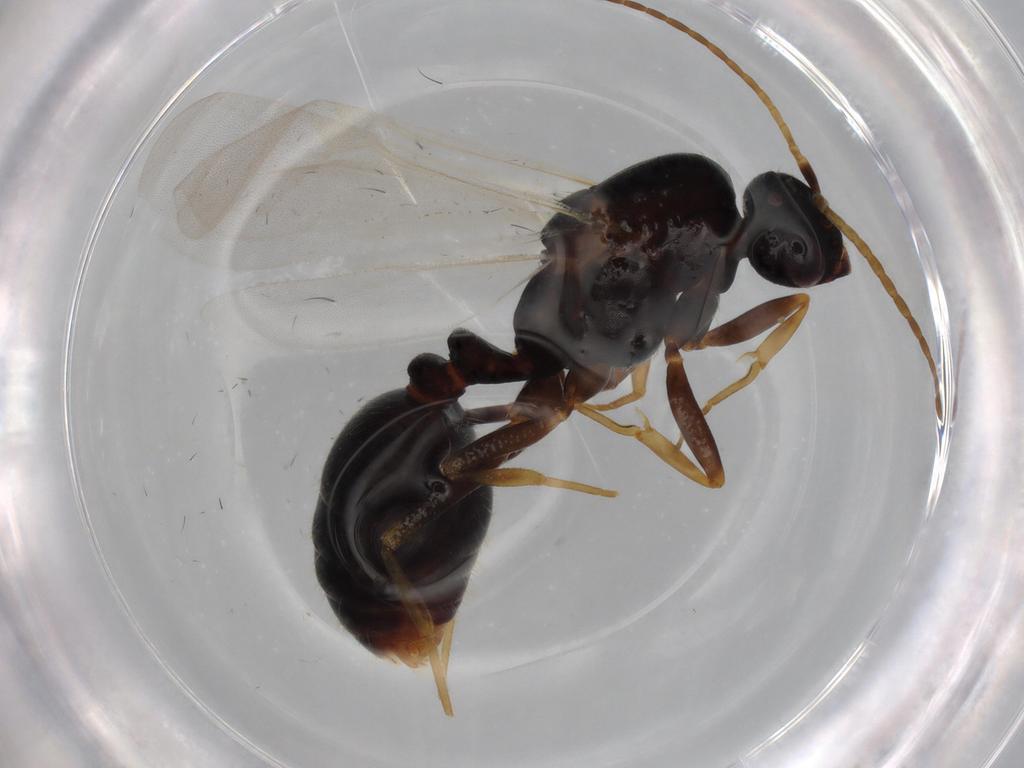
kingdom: Animalia
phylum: Arthropoda
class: Insecta
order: Hymenoptera
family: Formicidae
